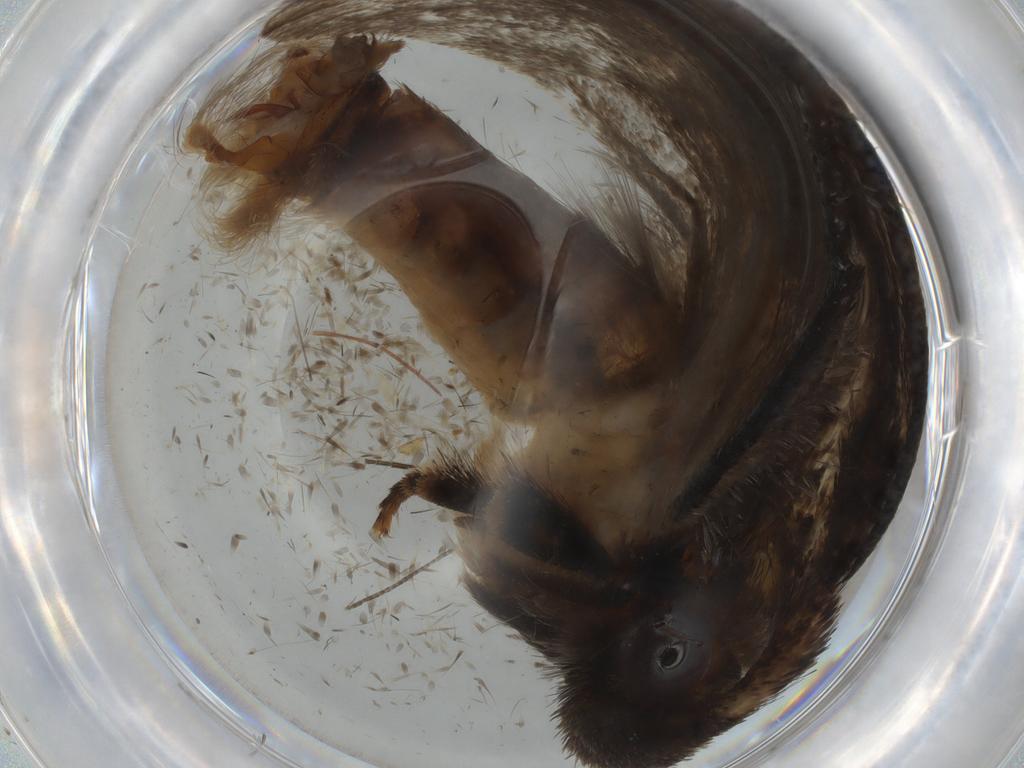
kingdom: Animalia
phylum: Arthropoda
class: Insecta
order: Lepidoptera
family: Tineidae
